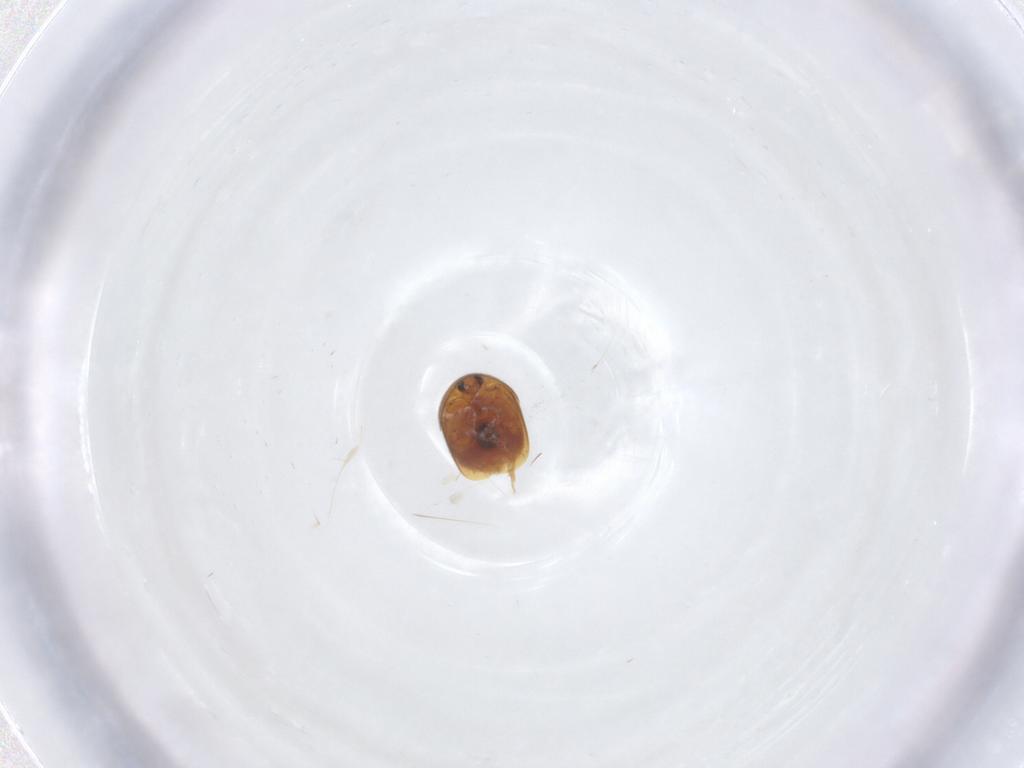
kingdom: Animalia
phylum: Arthropoda
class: Insecta
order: Coleoptera
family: Corylophidae
